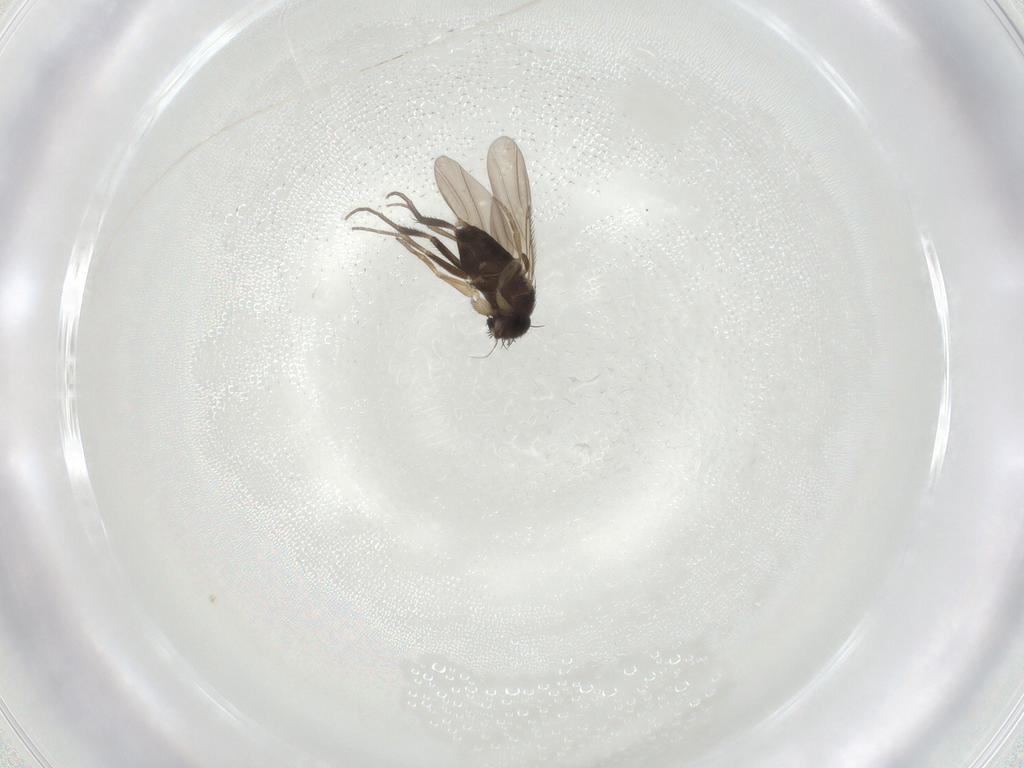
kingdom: Animalia
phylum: Arthropoda
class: Insecta
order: Diptera
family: Phoridae
